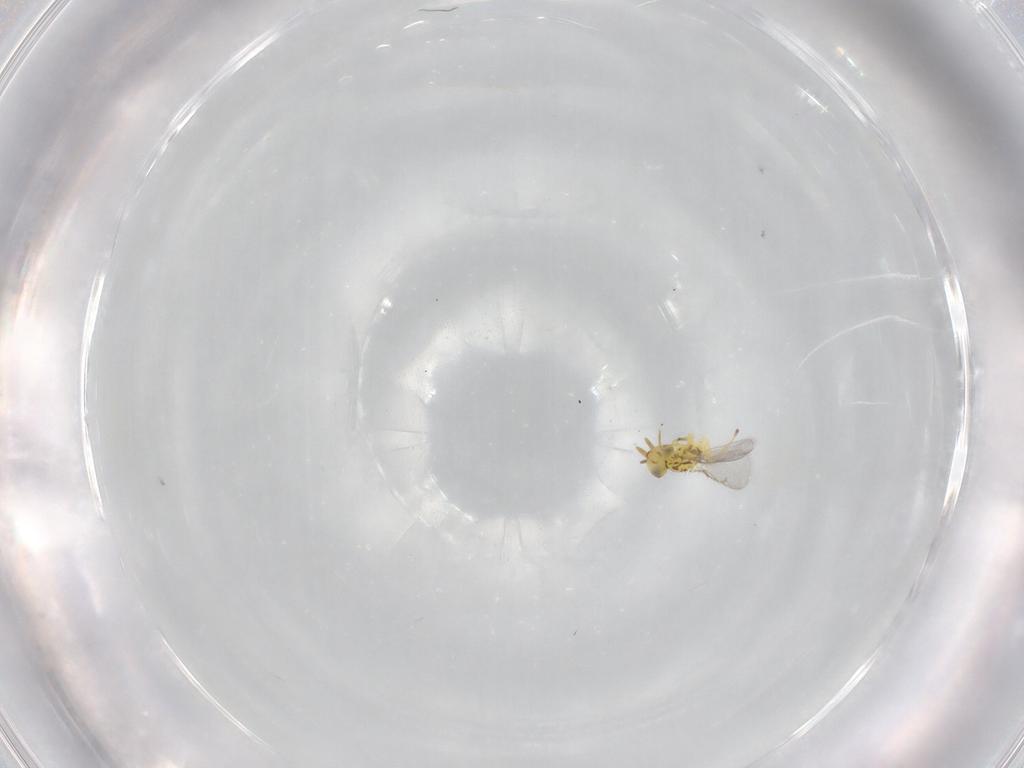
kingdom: Animalia
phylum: Arthropoda
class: Insecta
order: Hymenoptera
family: Eulophidae
